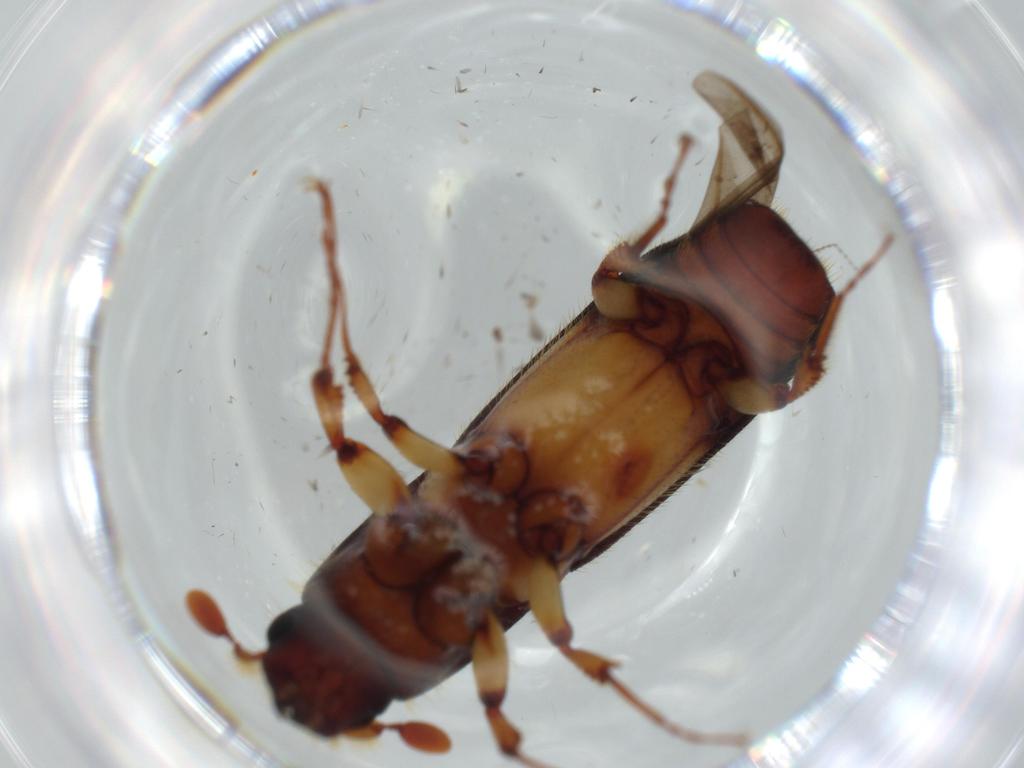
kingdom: Animalia
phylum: Arthropoda
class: Insecta
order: Coleoptera
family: Curculionidae
